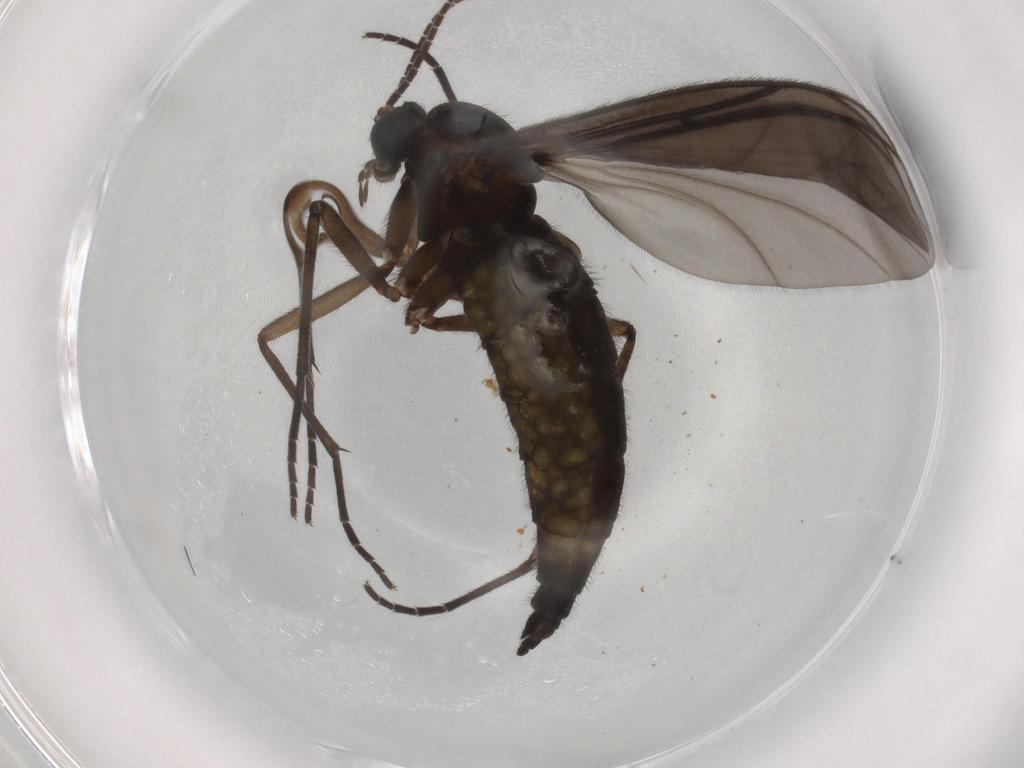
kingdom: Animalia
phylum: Arthropoda
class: Insecta
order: Diptera
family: Sciaridae
